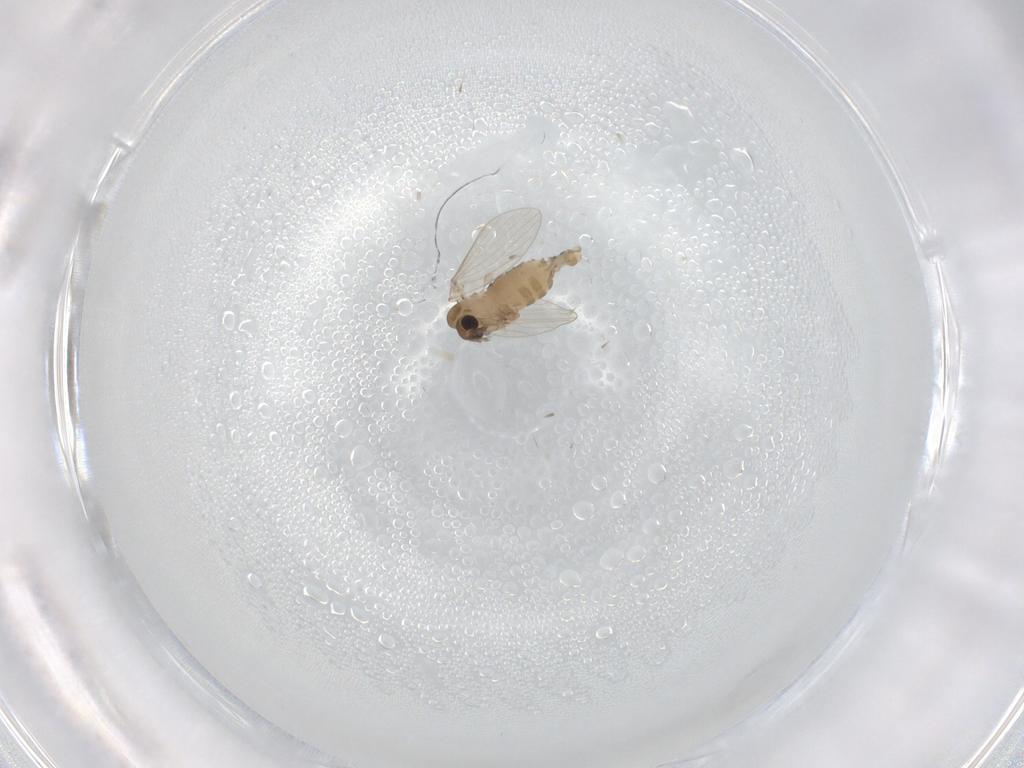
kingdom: Animalia
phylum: Arthropoda
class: Insecta
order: Diptera
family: Psychodidae
